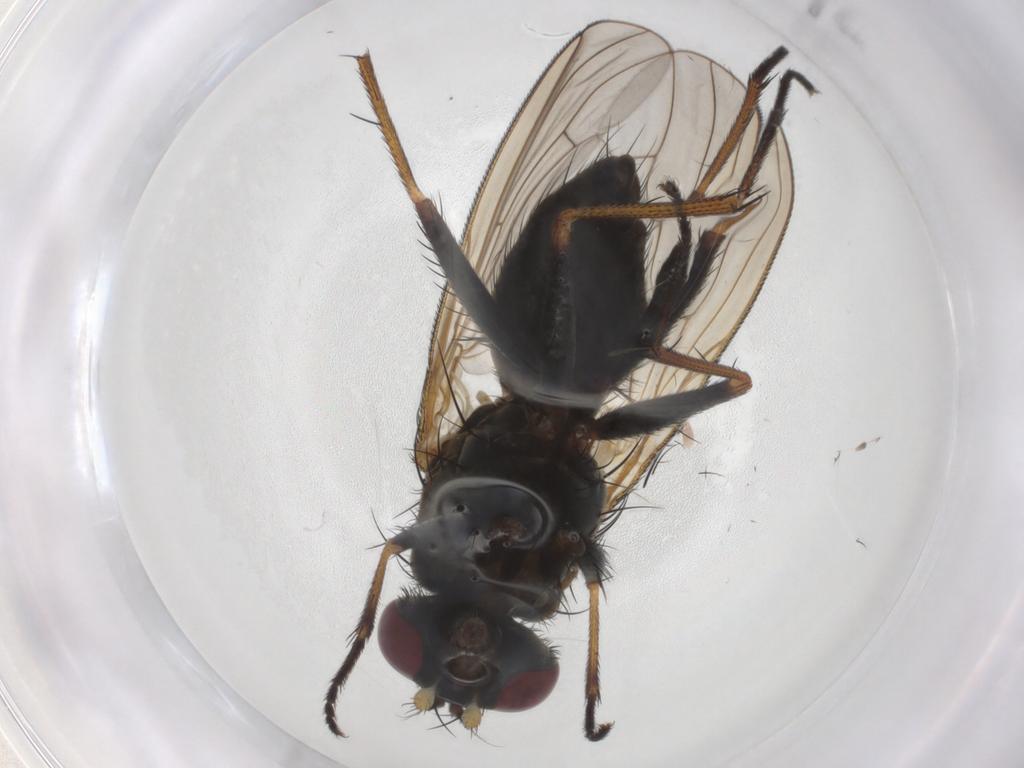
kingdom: Animalia
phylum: Arthropoda
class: Insecta
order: Diptera
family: Muscidae
